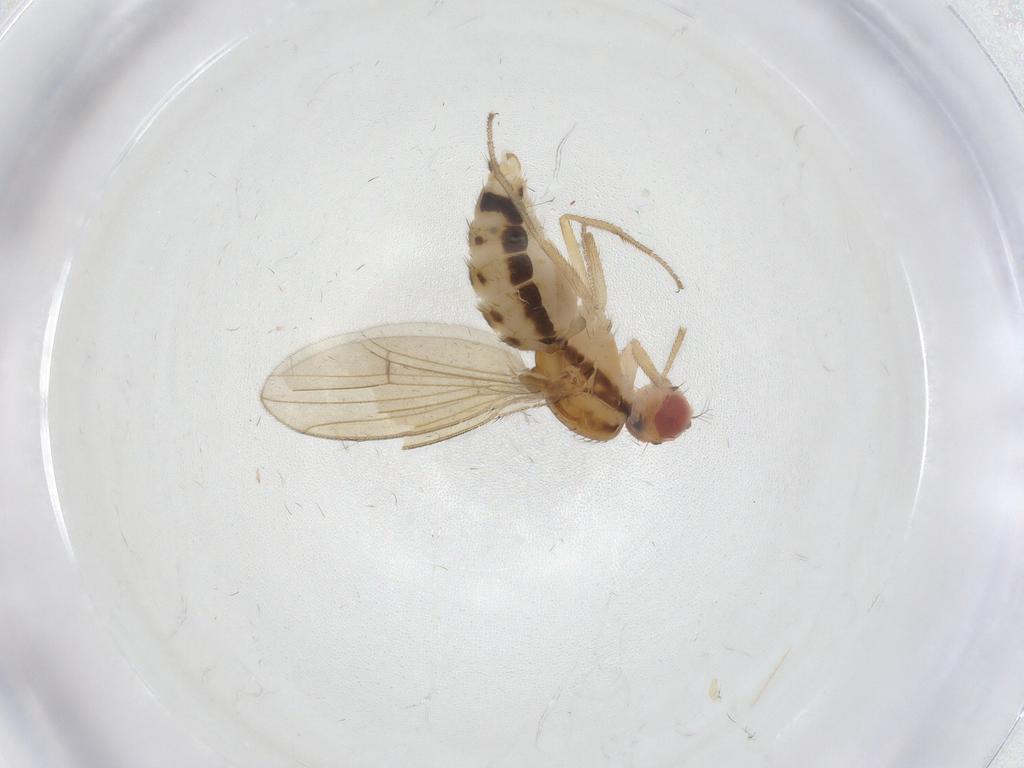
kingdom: Animalia
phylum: Arthropoda
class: Insecta
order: Diptera
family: Drosophilidae
